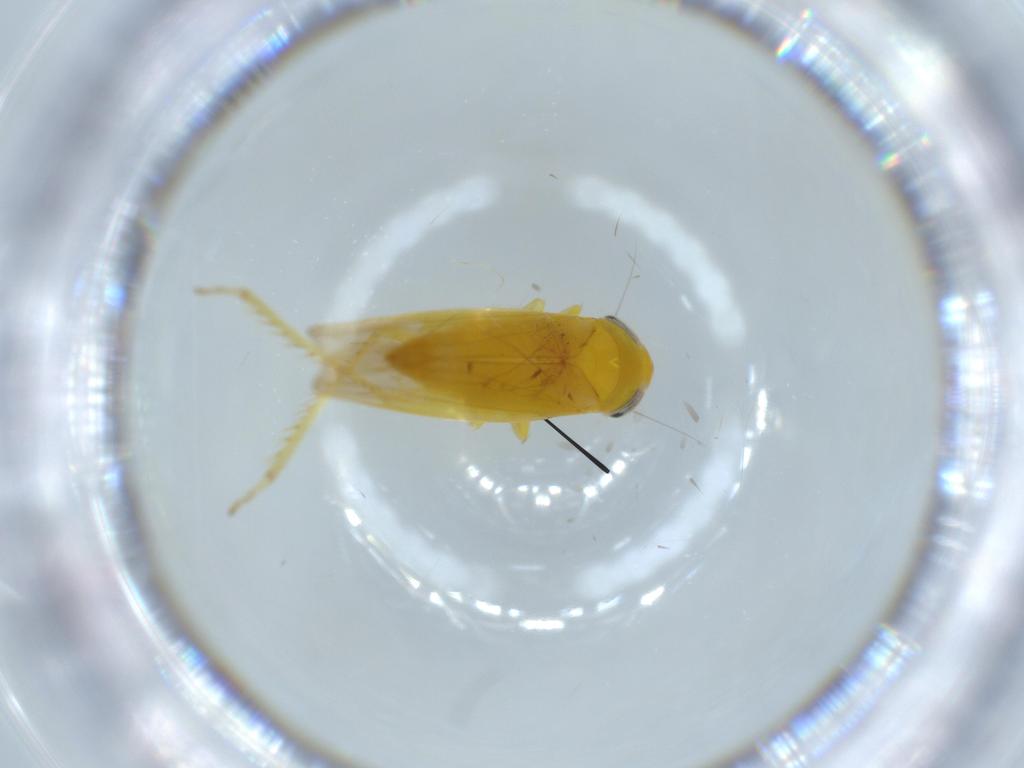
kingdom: Animalia
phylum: Arthropoda
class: Insecta
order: Hemiptera
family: Cicadellidae
